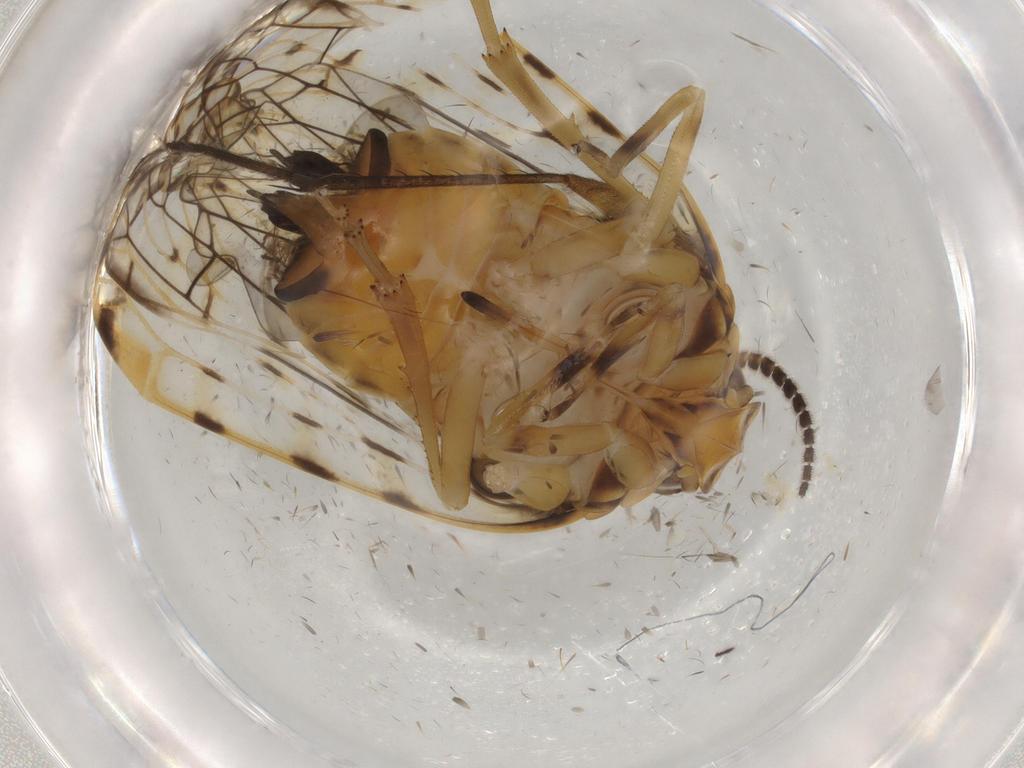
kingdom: Animalia
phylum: Arthropoda
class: Insecta
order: Hemiptera
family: Cixiidae
